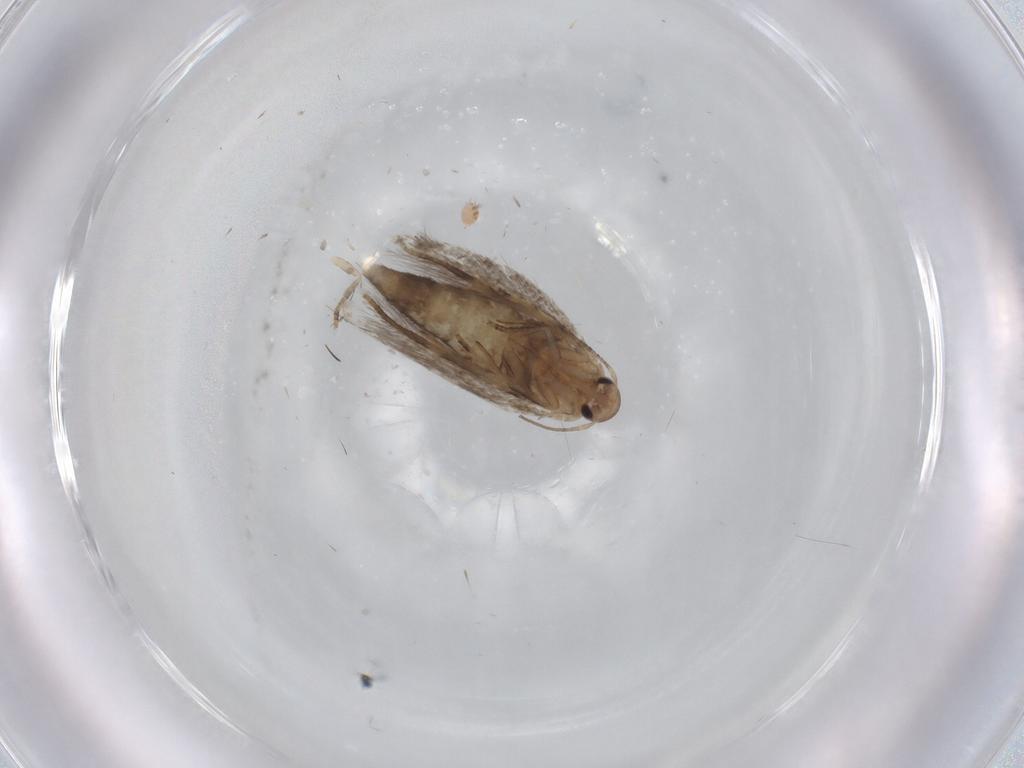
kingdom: Animalia
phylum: Arthropoda
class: Insecta
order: Lepidoptera
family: Elachistidae
